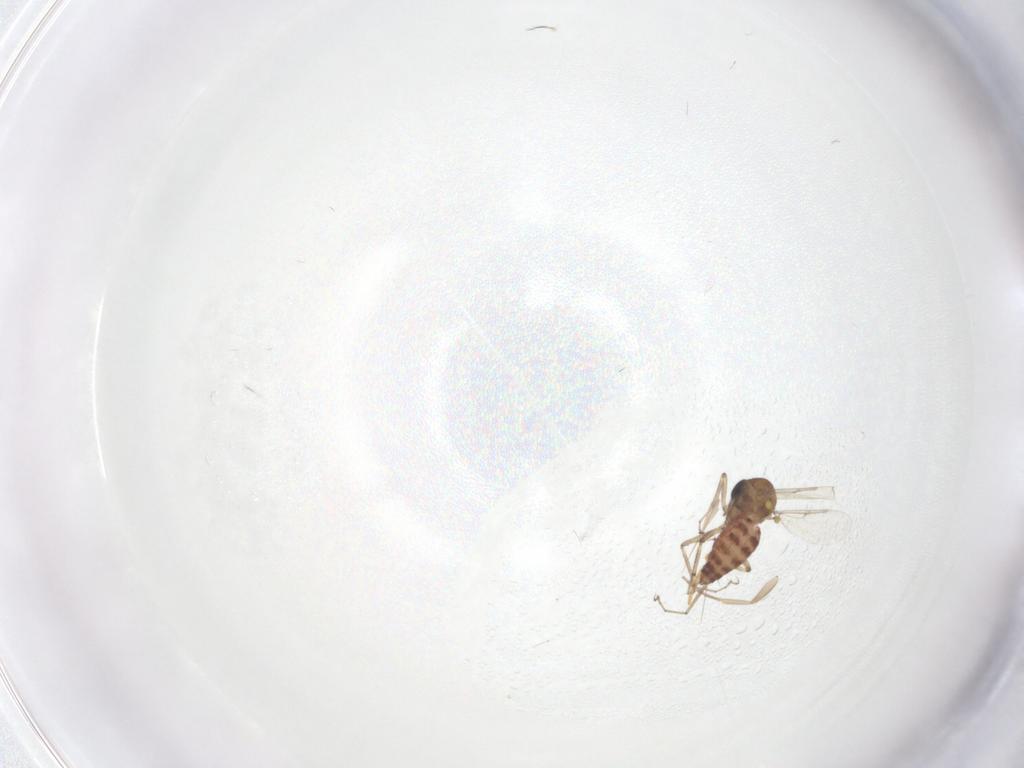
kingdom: Animalia
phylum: Arthropoda
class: Insecta
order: Diptera
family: Ceratopogonidae
